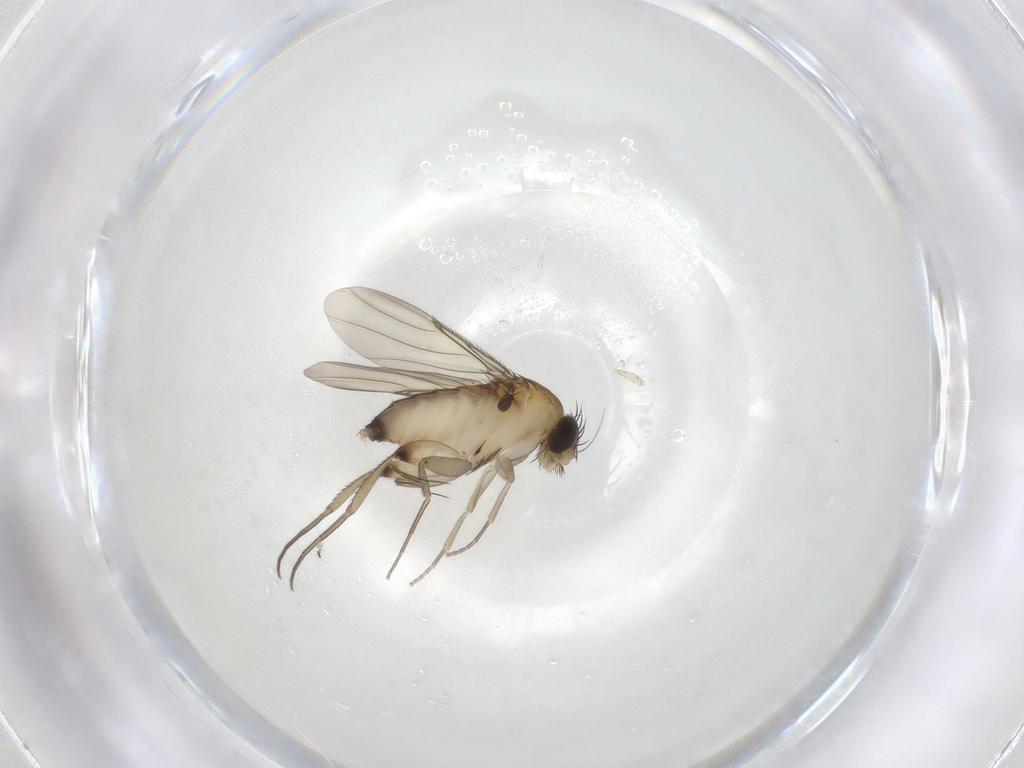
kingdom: Animalia
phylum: Arthropoda
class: Insecta
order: Diptera
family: Phoridae
